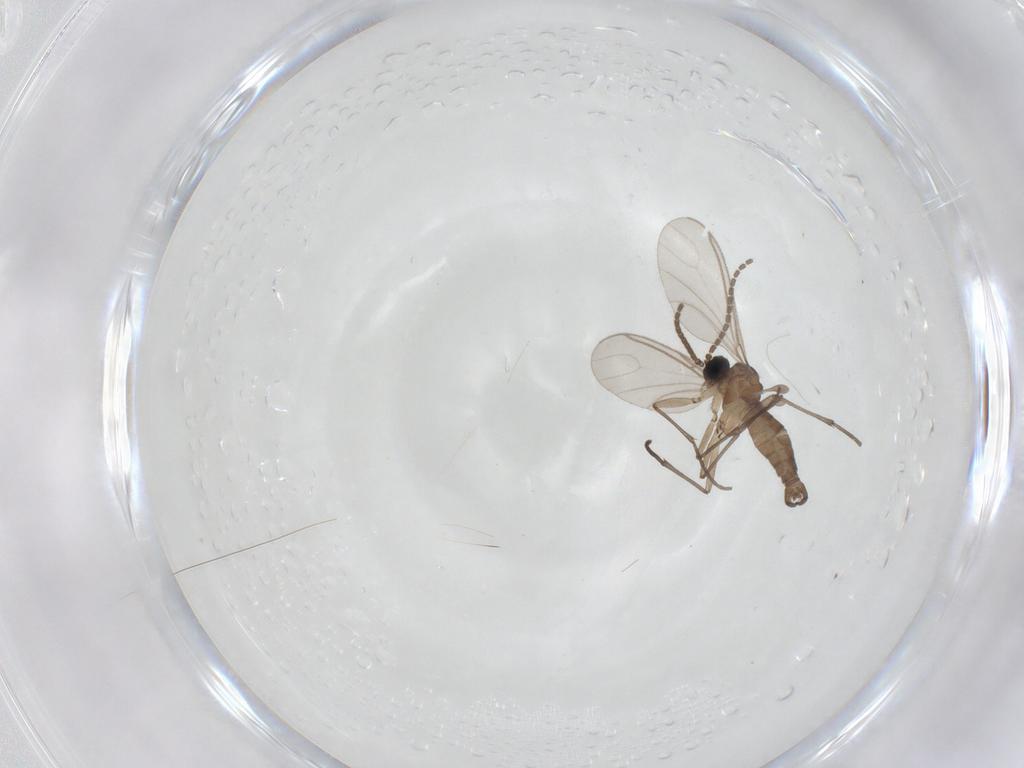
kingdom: Animalia
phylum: Arthropoda
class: Insecta
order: Diptera
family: Sciaridae
